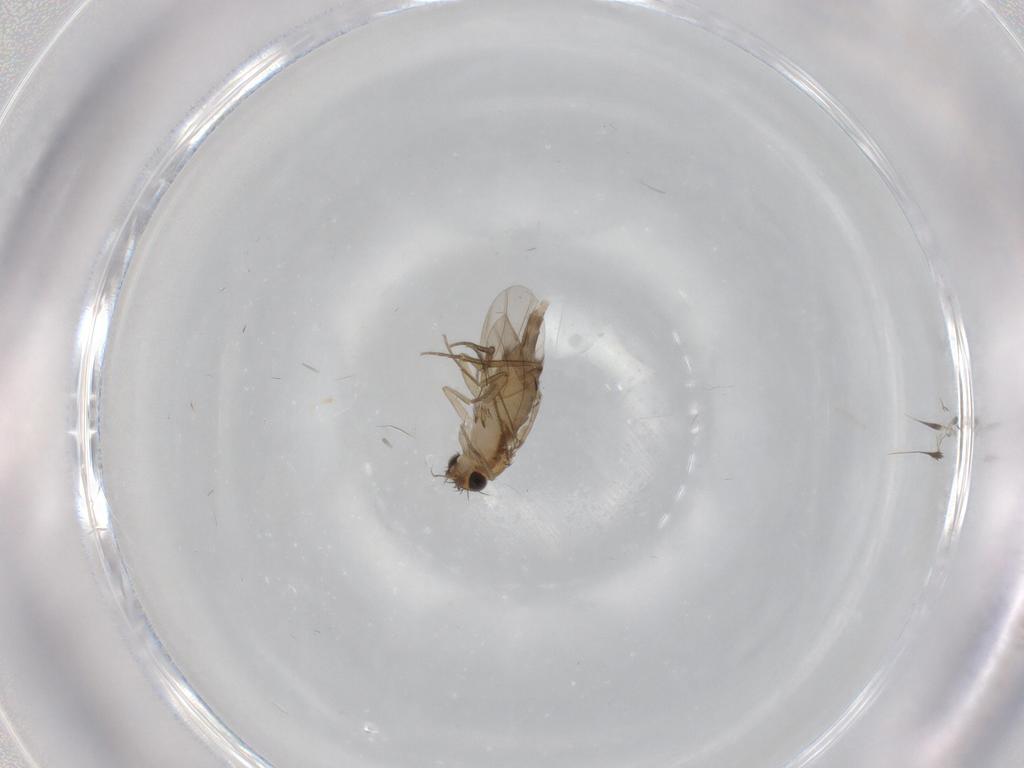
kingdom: Animalia
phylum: Arthropoda
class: Insecta
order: Diptera
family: Phoridae
